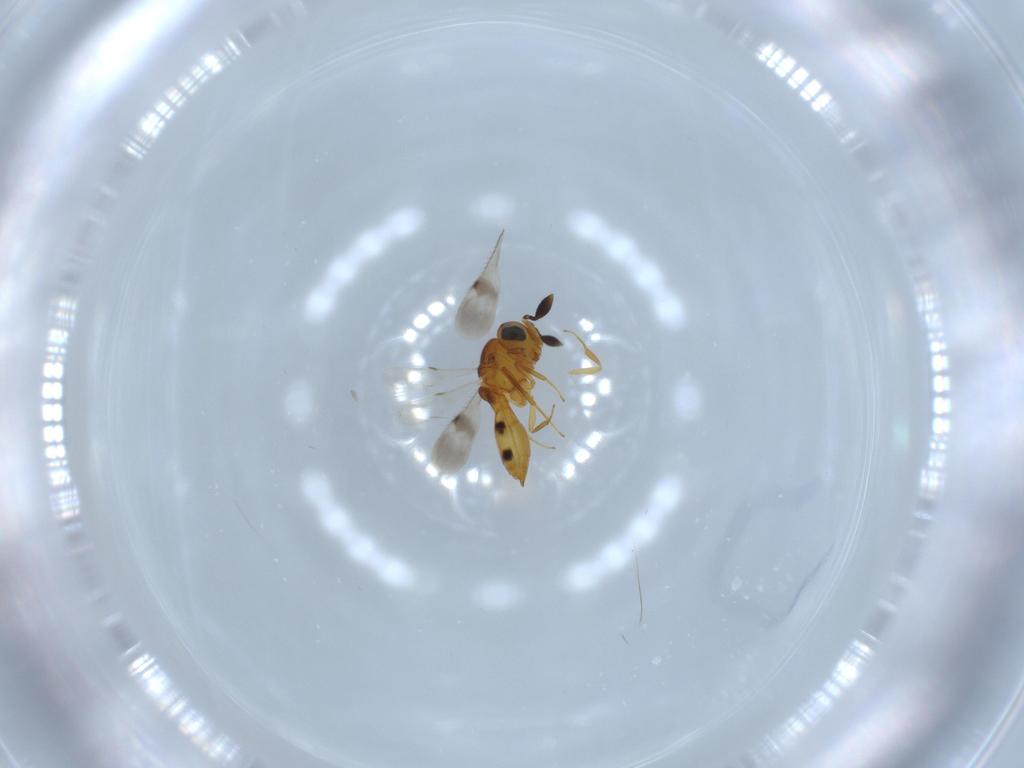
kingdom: Animalia
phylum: Arthropoda
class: Insecta
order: Hymenoptera
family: Scelionidae
